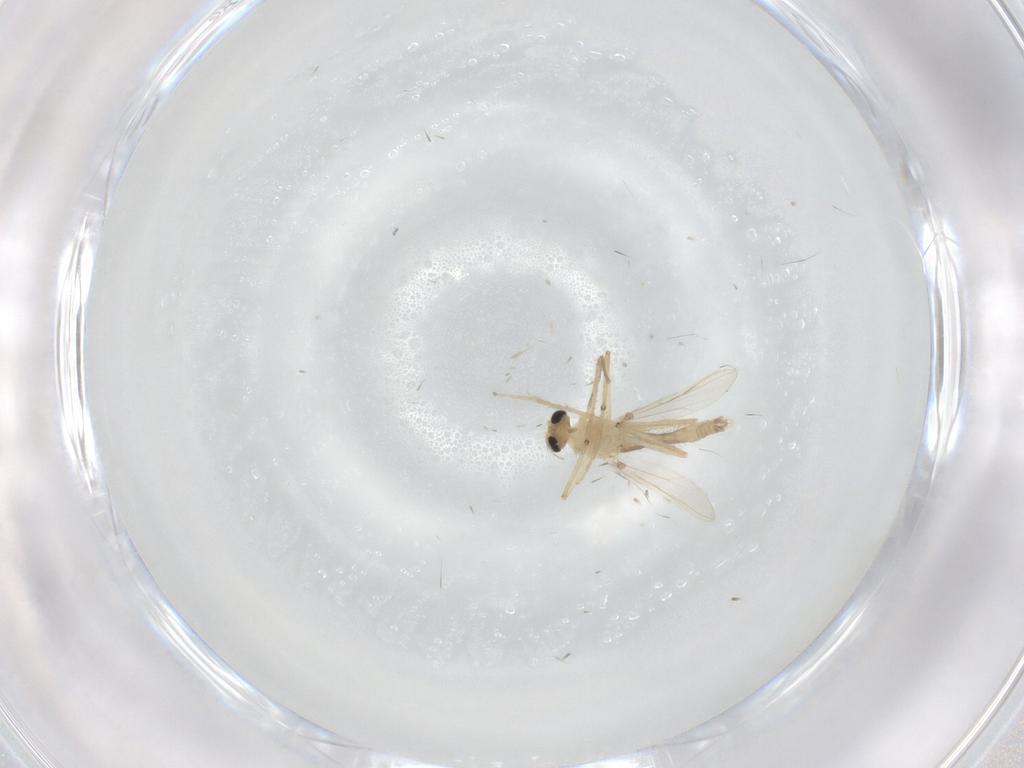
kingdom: Animalia
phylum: Arthropoda
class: Insecta
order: Diptera
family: Chironomidae
